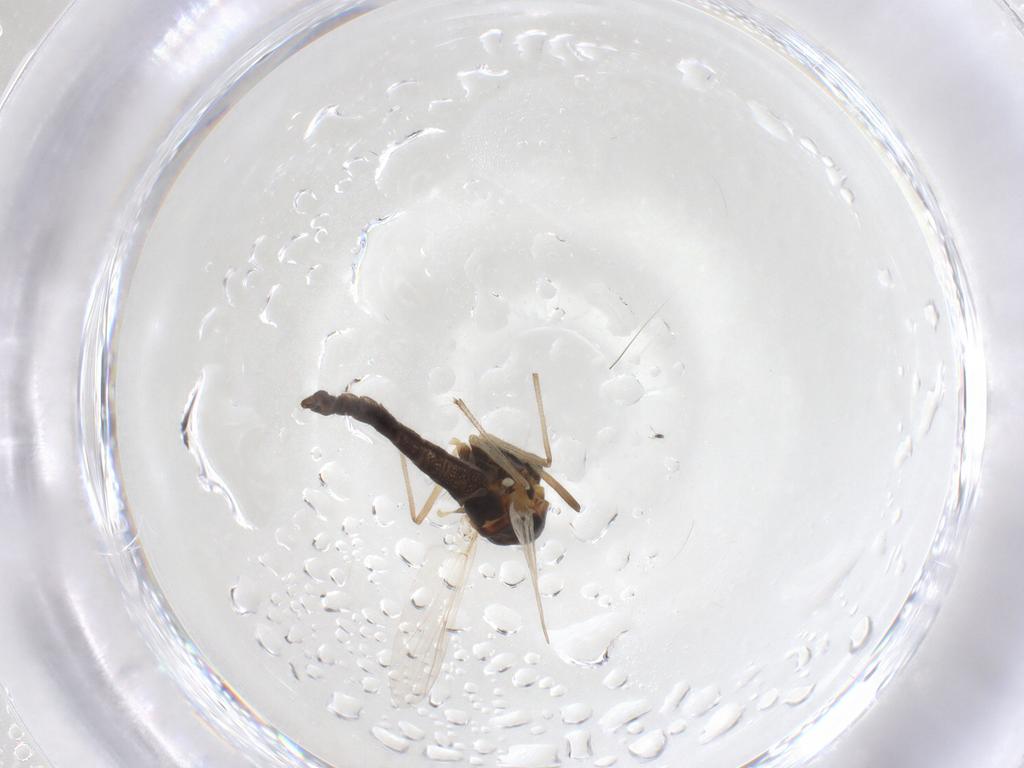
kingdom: Animalia
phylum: Arthropoda
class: Insecta
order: Diptera
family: Chironomidae
